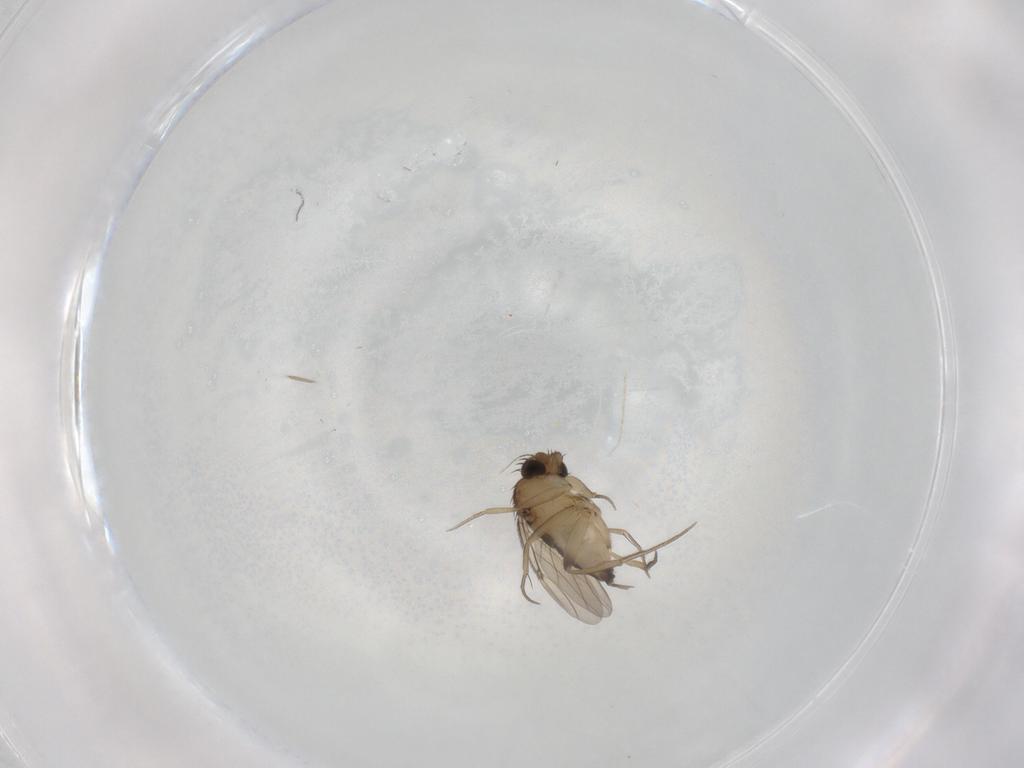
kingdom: Animalia
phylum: Arthropoda
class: Insecta
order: Diptera
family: Phoridae
